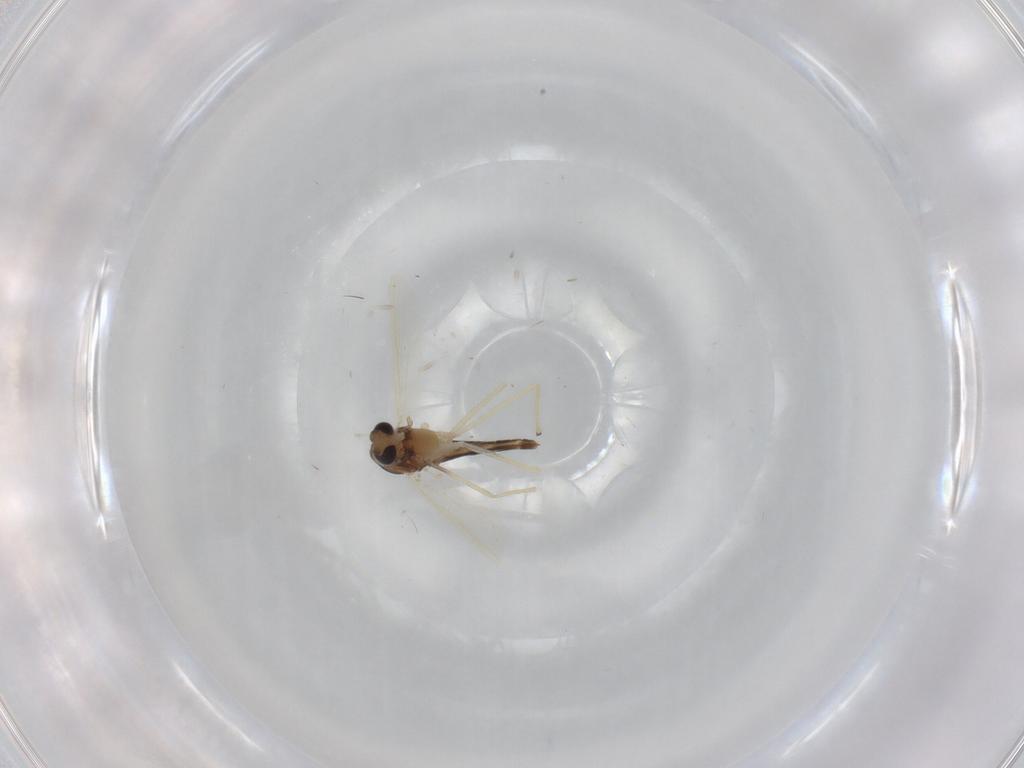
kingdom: Animalia
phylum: Arthropoda
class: Insecta
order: Diptera
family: Chironomidae
